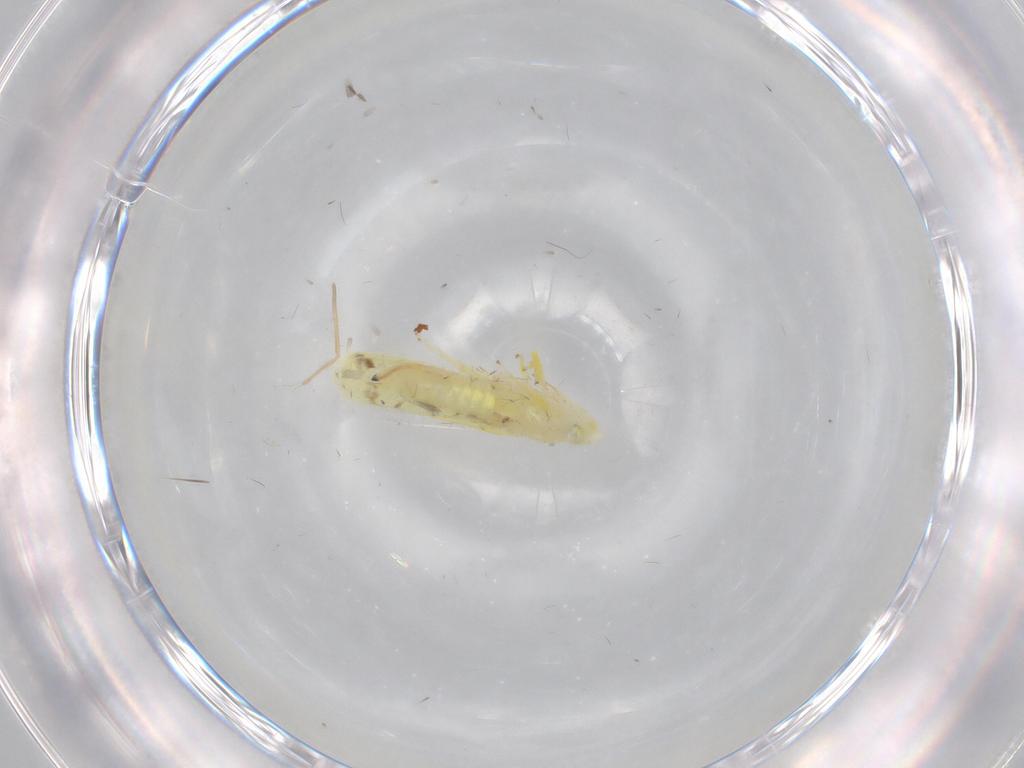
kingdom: Animalia
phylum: Arthropoda
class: Insecta
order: Hemiptera
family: Cicadellidae
